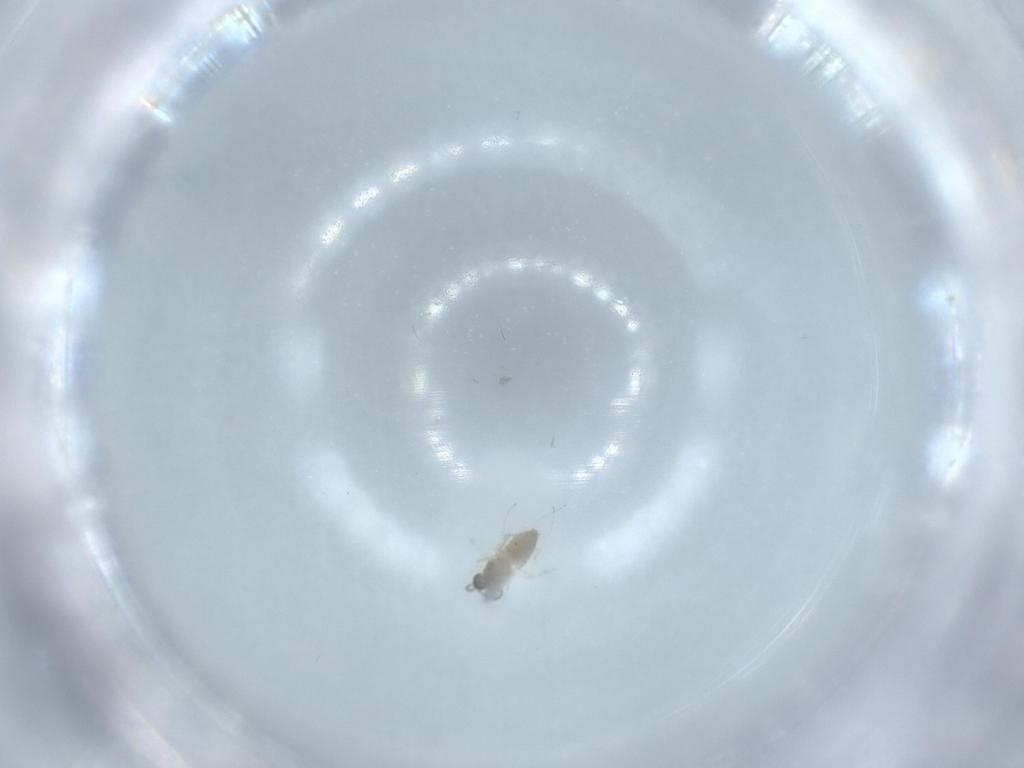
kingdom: Animalia
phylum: Arthropoda
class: Insecta
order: Diptera
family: Cecidomyiidae
